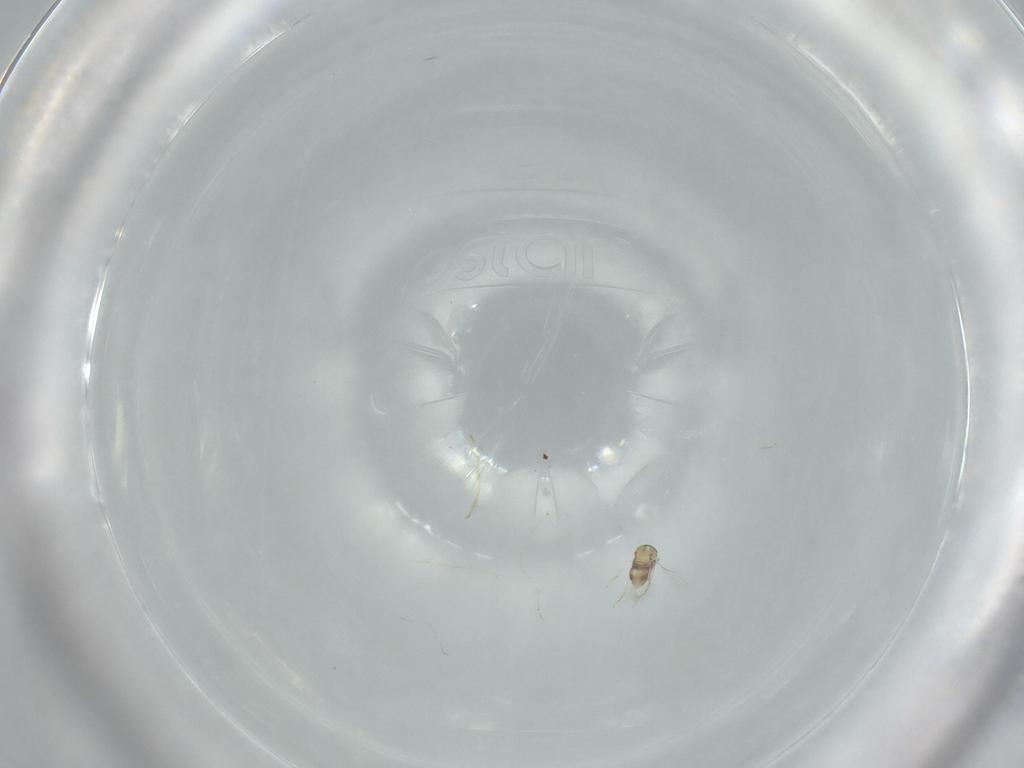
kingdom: Animalia
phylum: Arthropoda
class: Insecta
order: Hymenoptera
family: Aphelinidae
